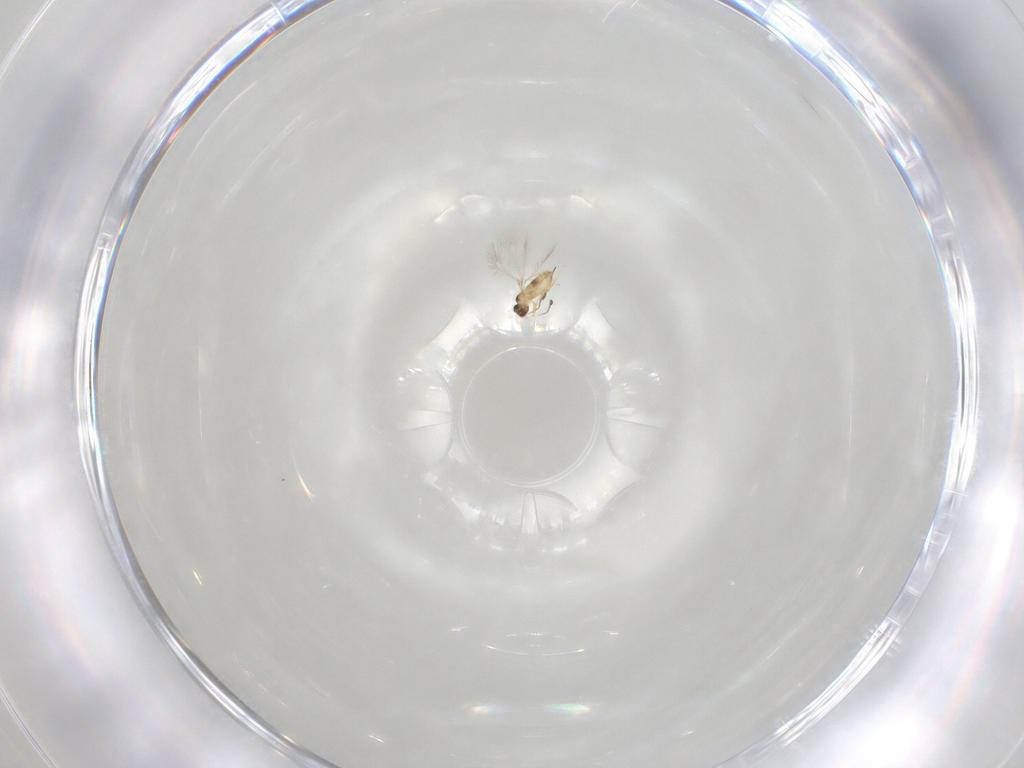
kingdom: Animalia
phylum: Arthropoda
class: Insecta
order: Hymenoptera
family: Mymaridae
